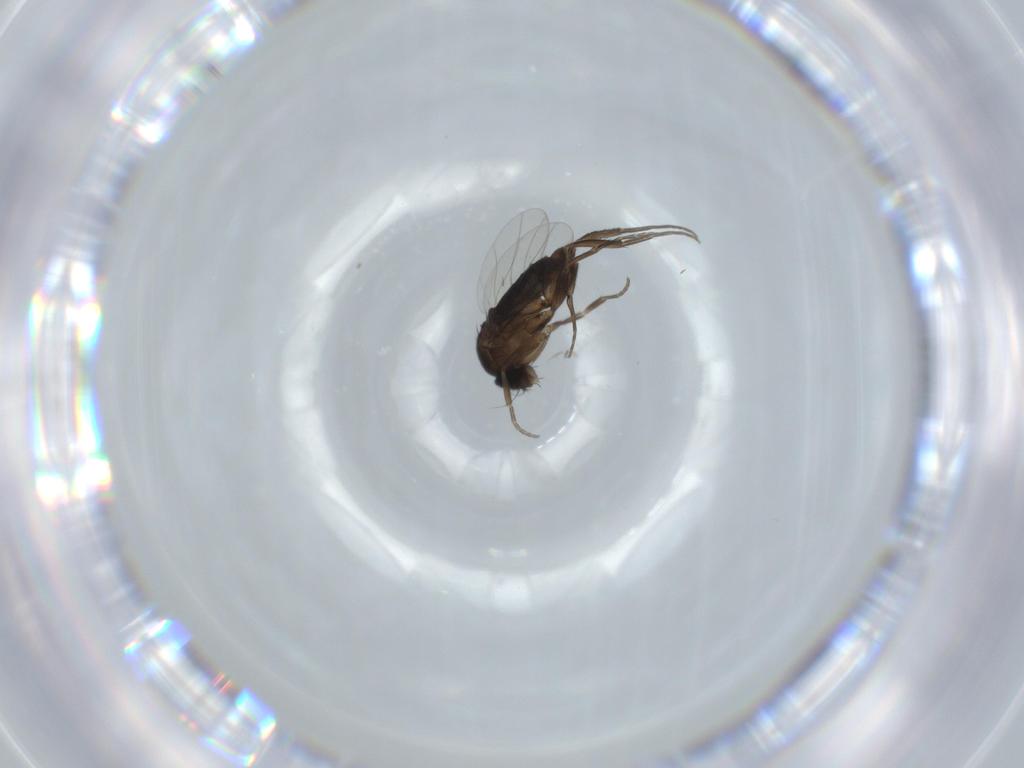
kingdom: Animalia
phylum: Arthropoda
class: Insecta
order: Diptera
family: Phoridae
